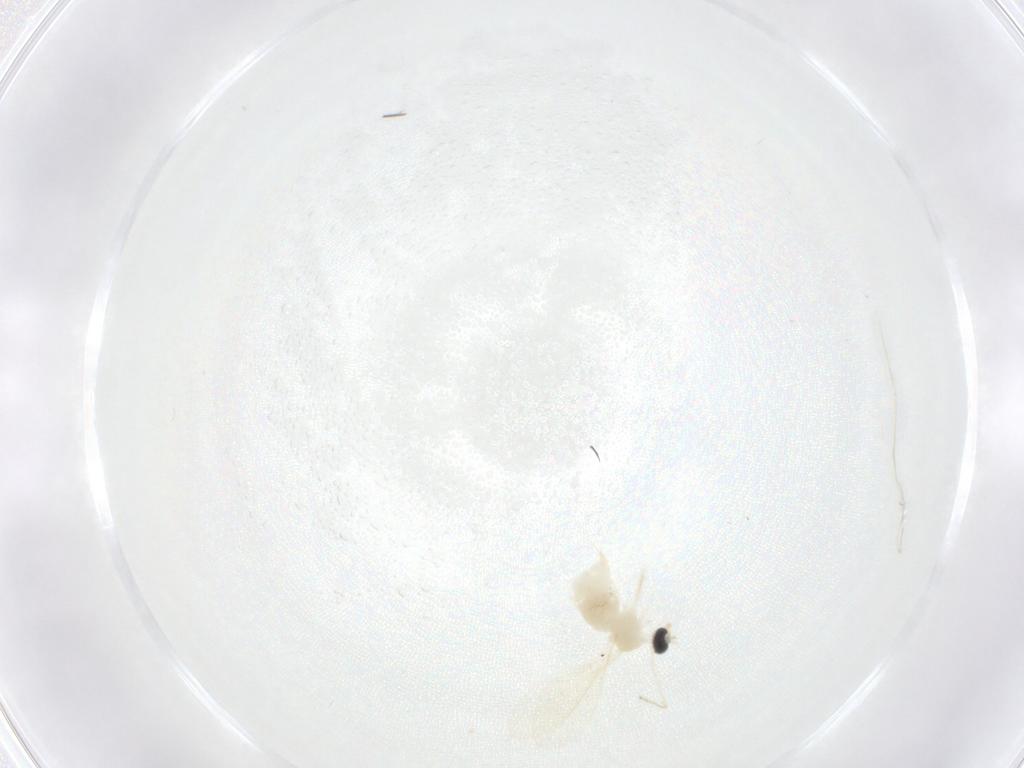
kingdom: Animalia
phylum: Arthropoda
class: Insecta
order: Diptera
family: Cecidomyiidae
